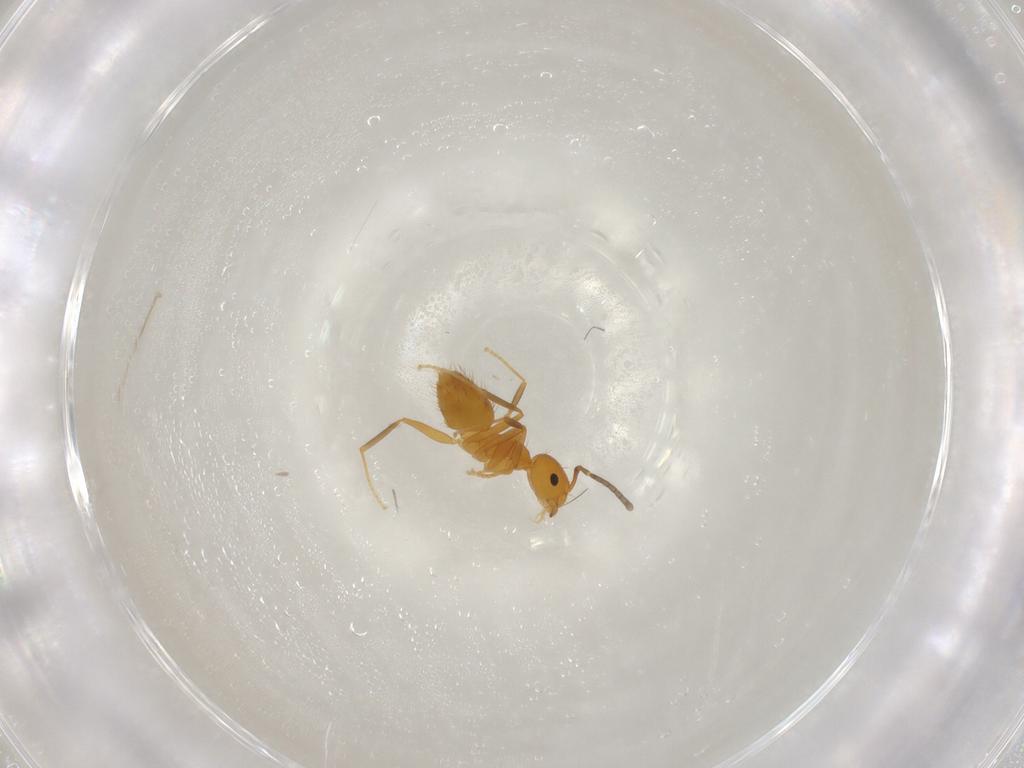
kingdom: Animalia
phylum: Arthropoda
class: Insecta
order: Hymenoptera
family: Formicidae
